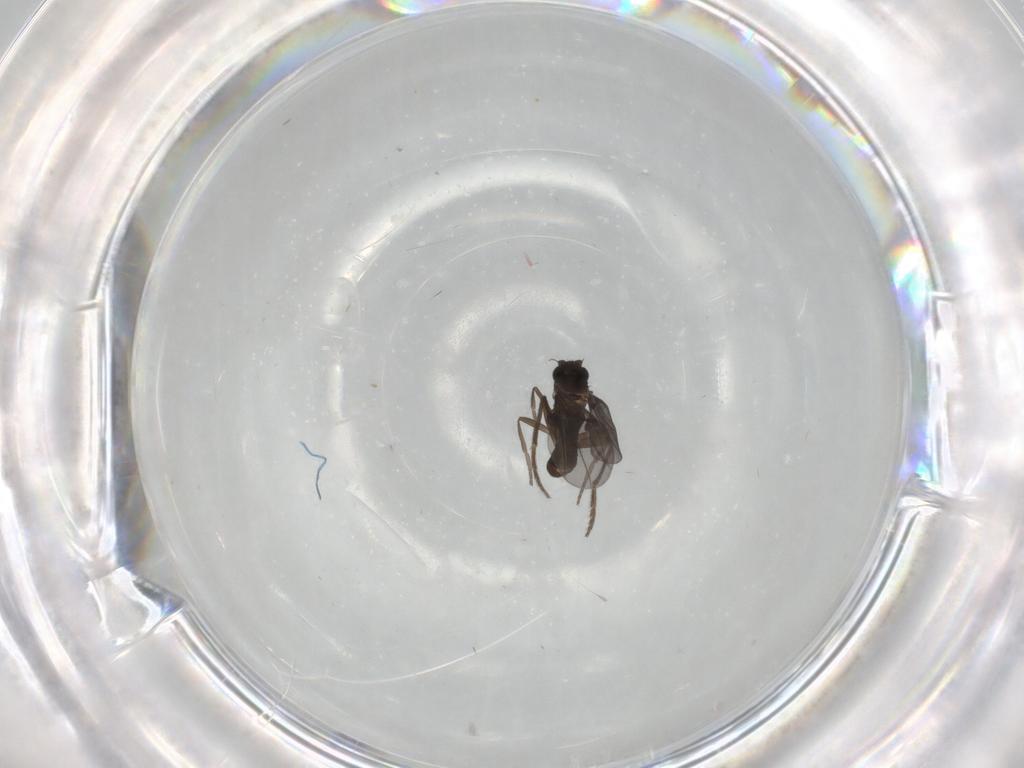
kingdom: Animalia
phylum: Arthropoda
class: Insecta
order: Diptera
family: Phoridae
